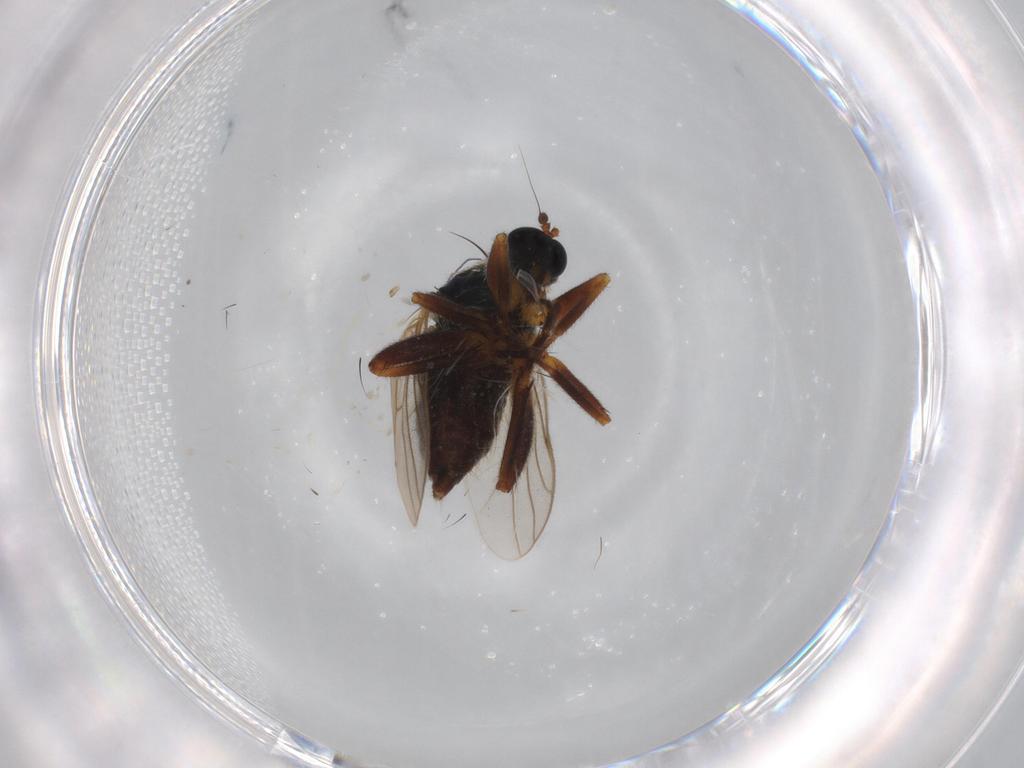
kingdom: Animalia
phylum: Arthropoda
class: Insecta
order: Diptera
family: Hybotidae
